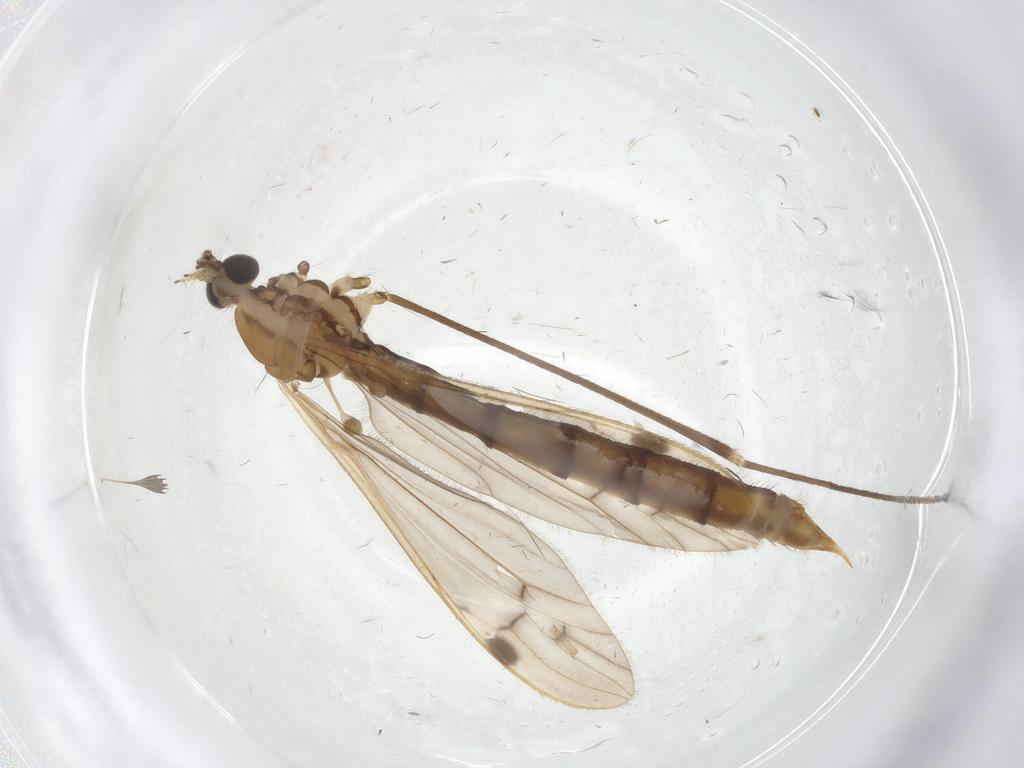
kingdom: Animalia
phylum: Arthropoda
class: Insecta
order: Diptera
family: Limoniidae
